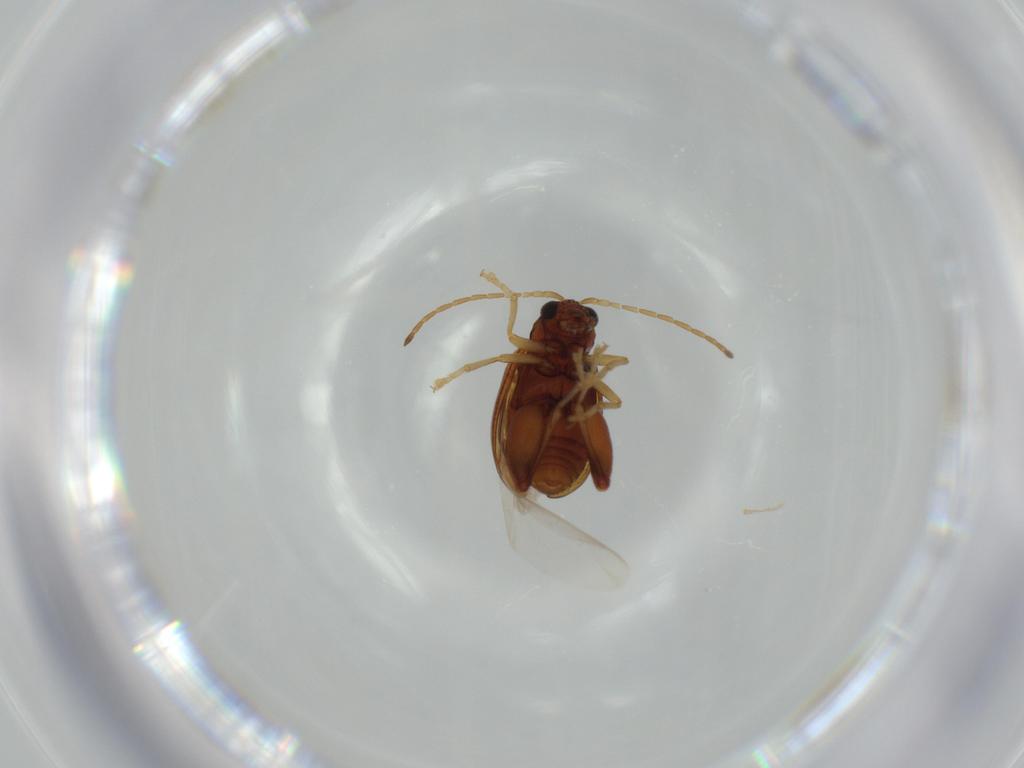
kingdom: Animalia
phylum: Arthropoda
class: Insecta
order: Coleoptera
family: Chrysomelidae
